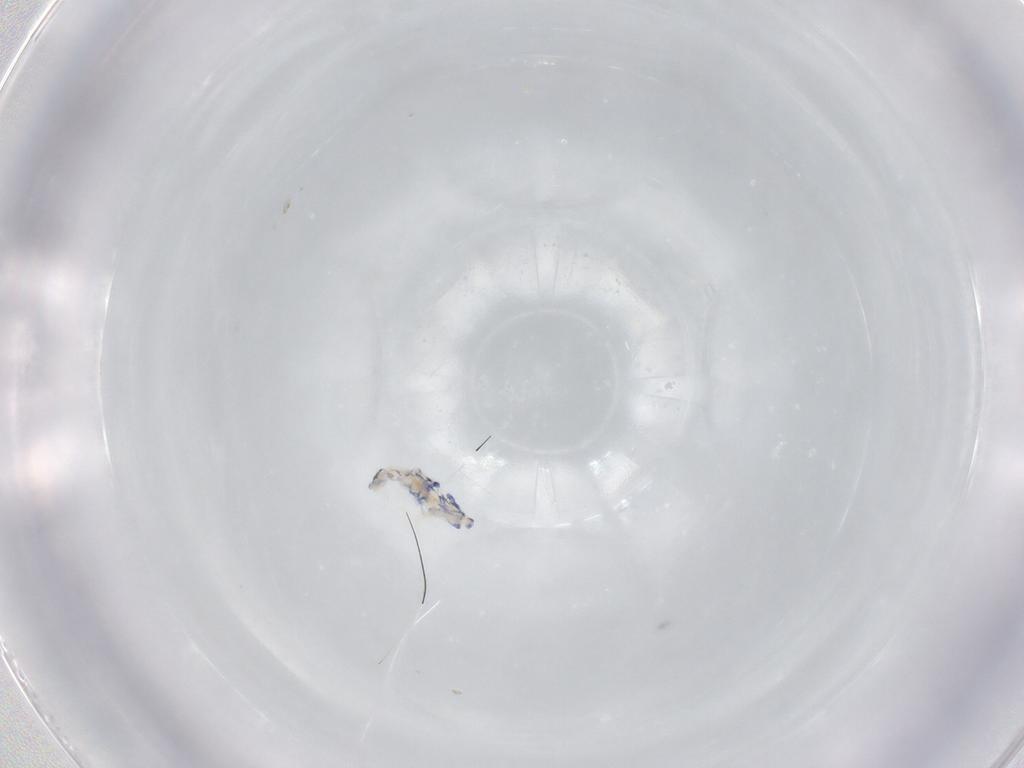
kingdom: Animalia
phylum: Arthropoda
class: Collembola
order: Entomobryomorpha
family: Entomobryidae
